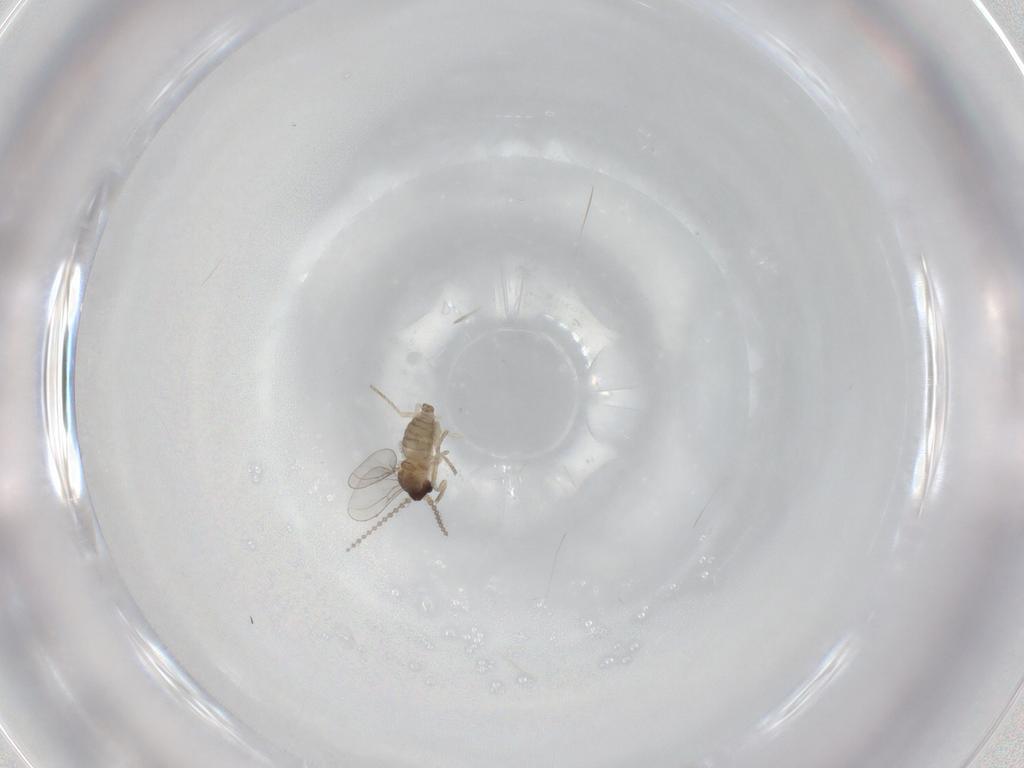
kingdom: Animalia
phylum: Arthropoda
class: Insecta
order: Diptera
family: Cecidomyiidae
